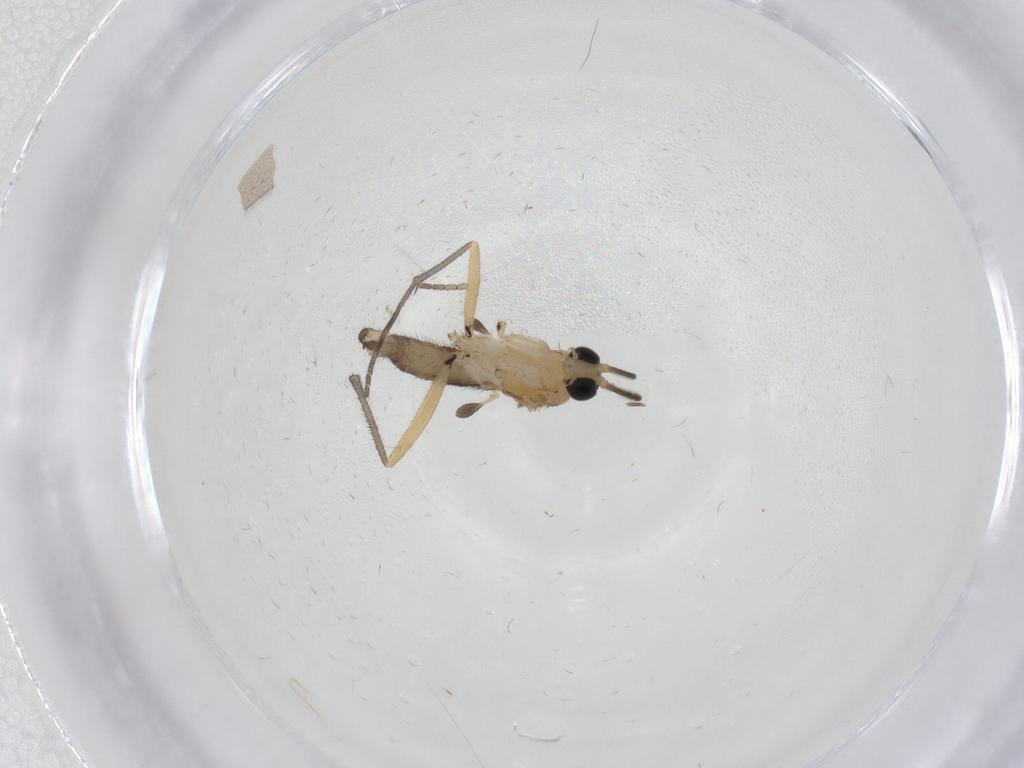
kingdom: Animalia
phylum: Arthropoda
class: Insecta
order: Diptera
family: Sciaridae
